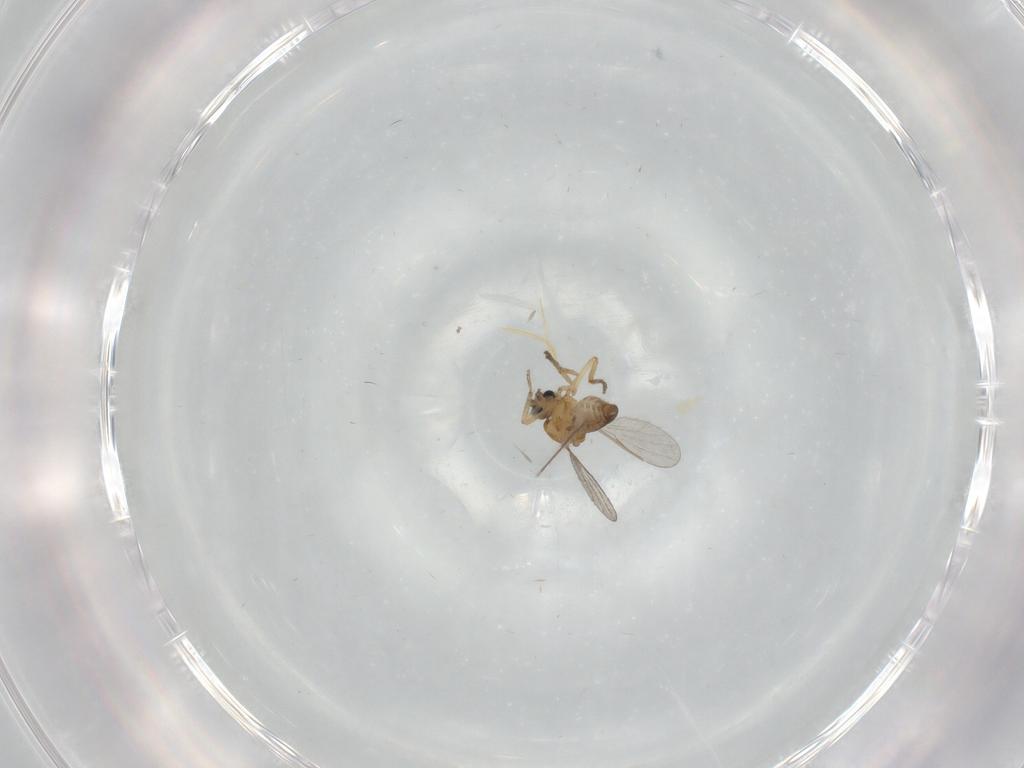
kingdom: Animalia
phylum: Arthropoda
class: Insecta
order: Diptera
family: Ceratopogonidae
